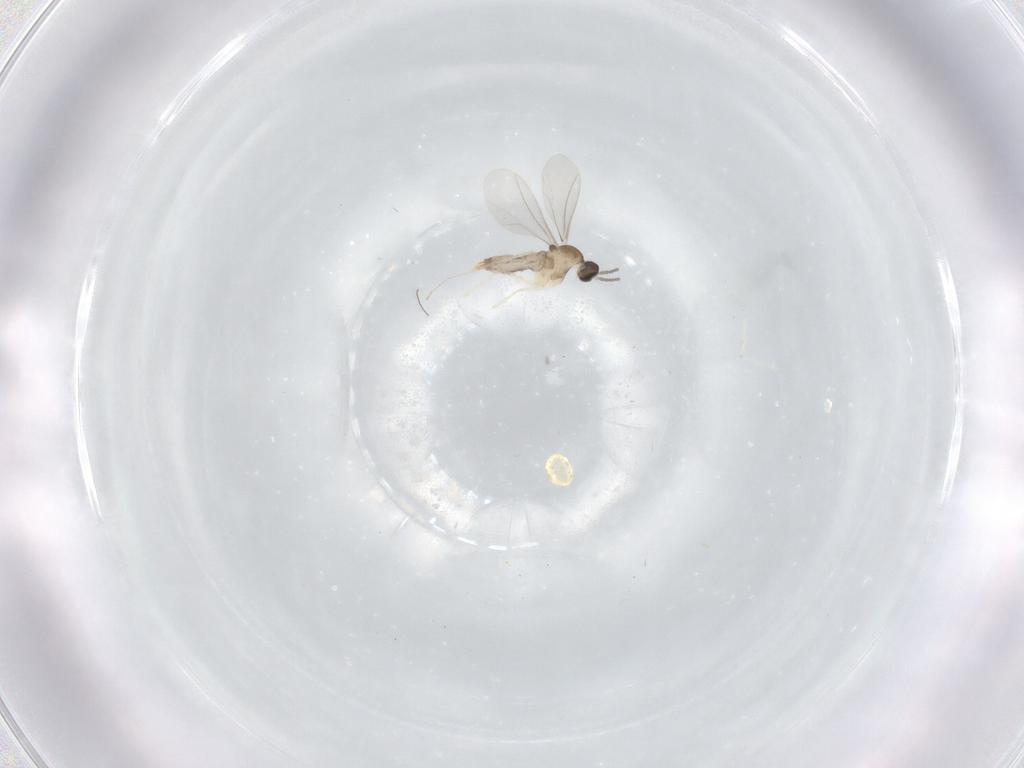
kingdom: Animalia
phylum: Arthropoda
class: Insecta
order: Diptera
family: Cecidomyiidae
